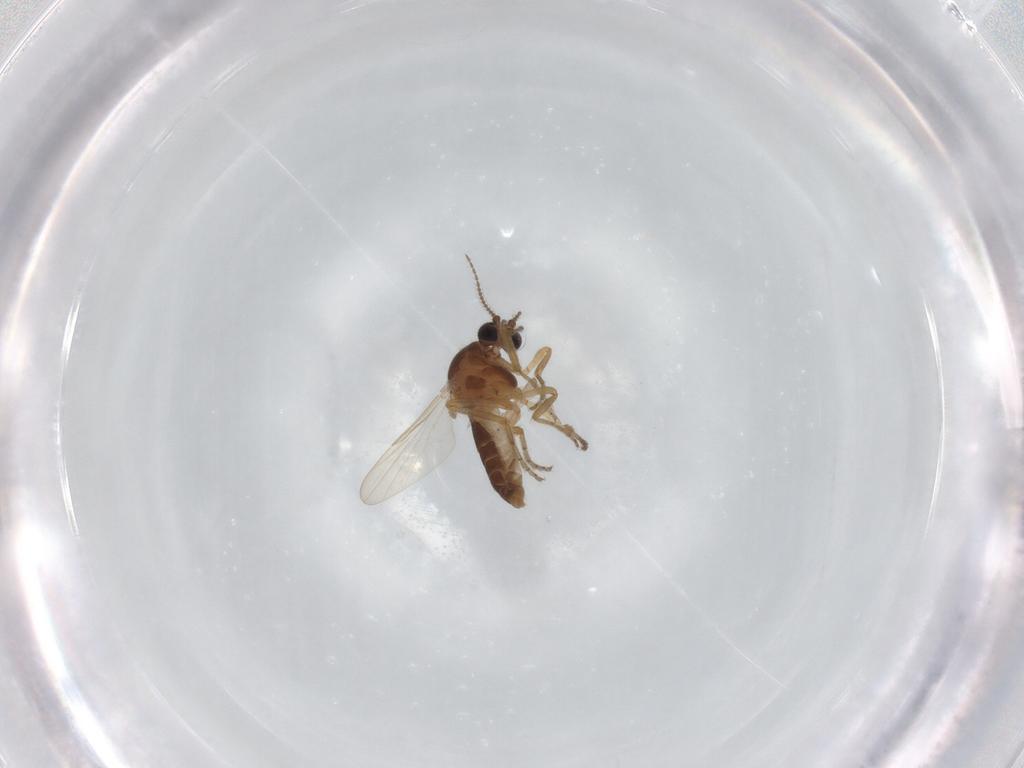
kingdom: Animalia
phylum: Arthropoda
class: Insecta
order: Diptera
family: Ceratopogonidae
